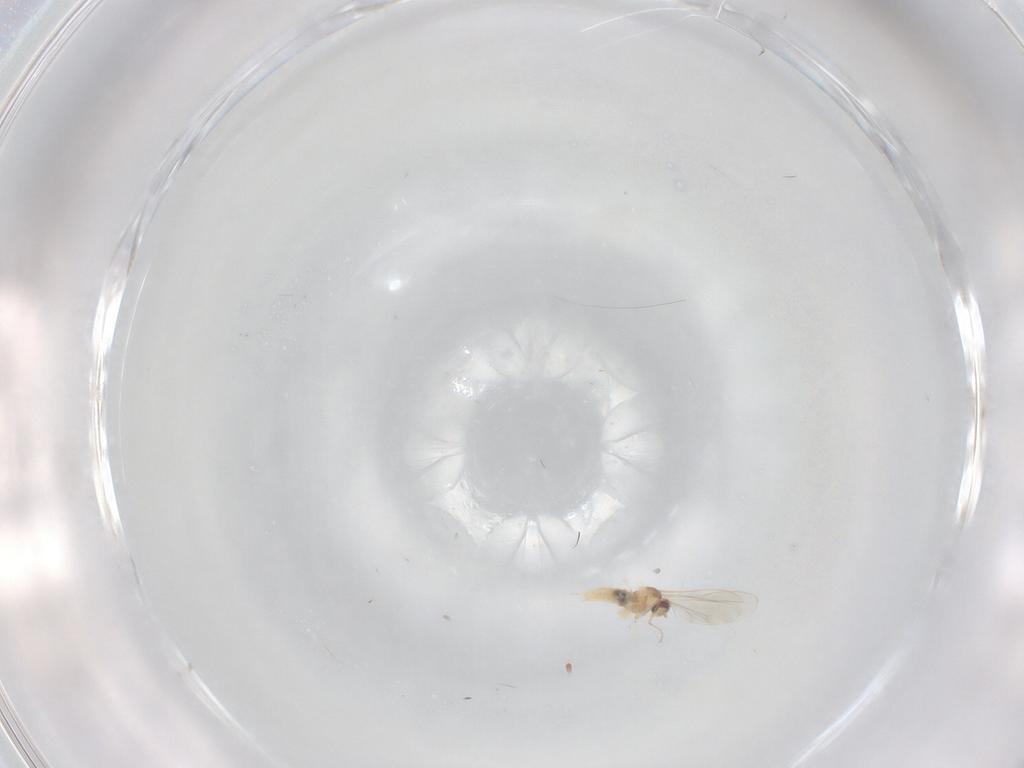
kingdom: Animalia
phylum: Arthropoda
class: Insecta
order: Diptera
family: Cecidomyiidae
